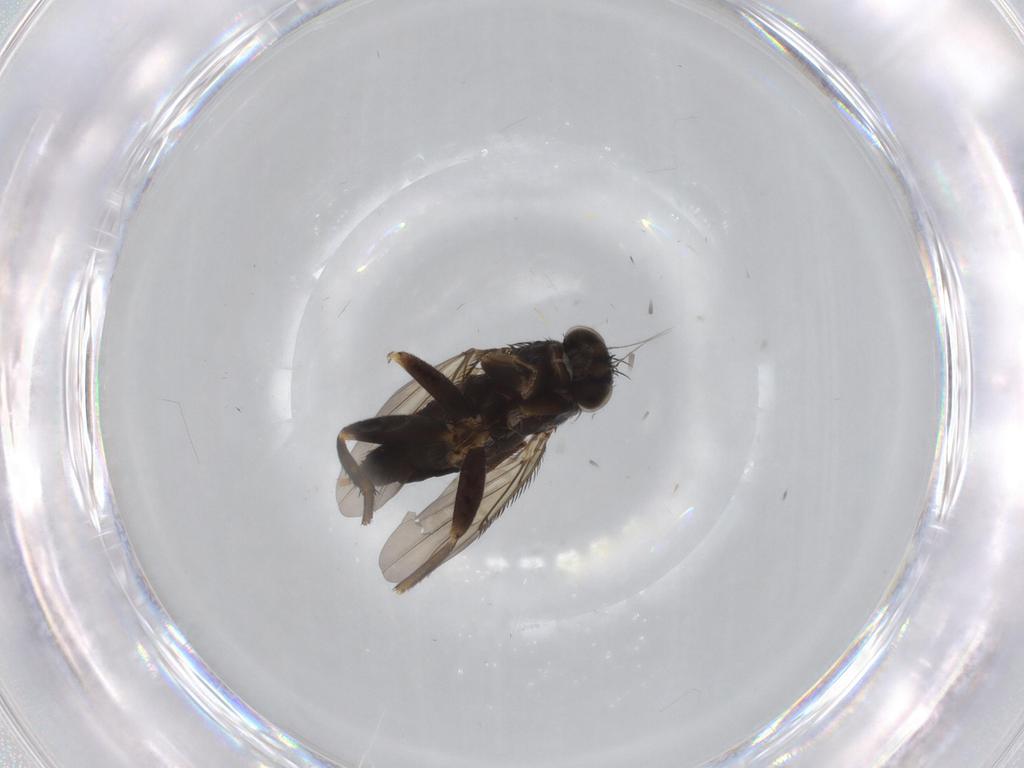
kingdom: Animalia
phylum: Arthropoda
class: Insecta
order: Diptera
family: Phoridae
